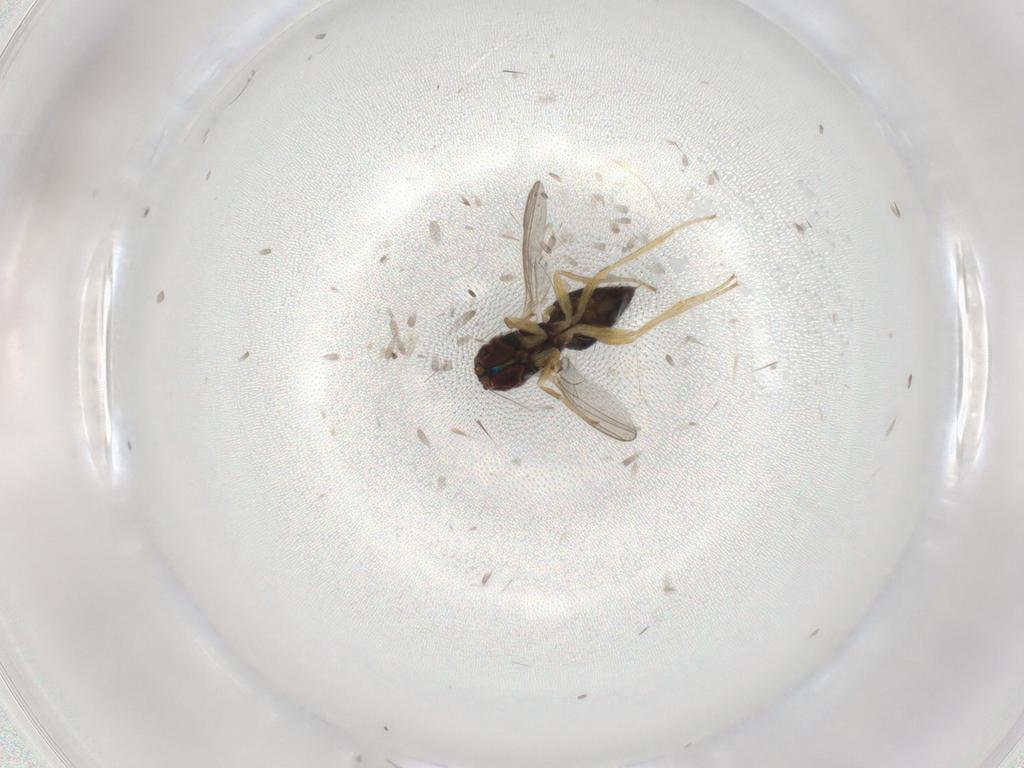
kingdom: Animalia
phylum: Arthropoda
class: Insecta
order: Diptera
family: Dolichopodidae
